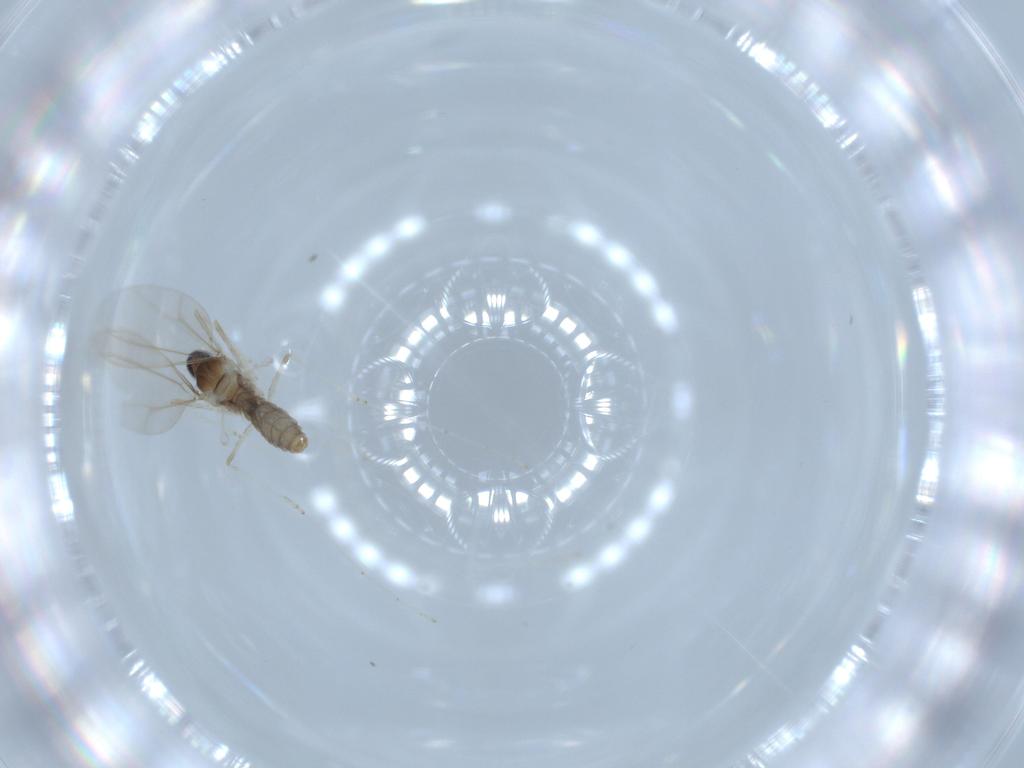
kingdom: Animalia
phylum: Arthropoda
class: Insecta
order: Diptera
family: Cecidomyiidae
